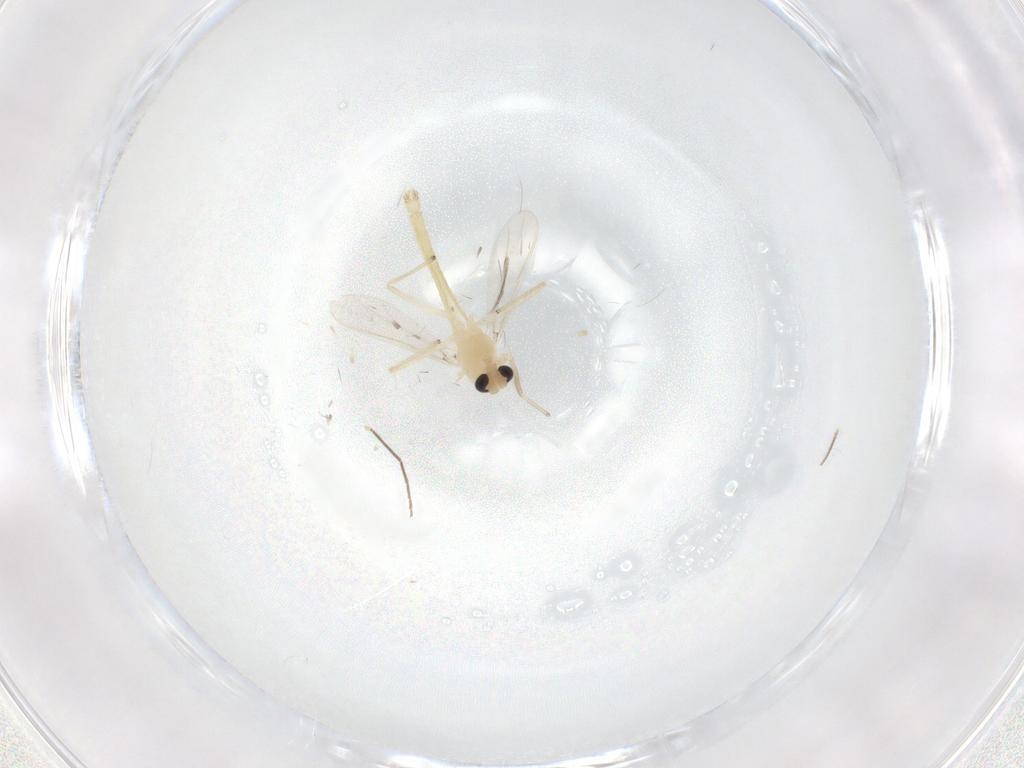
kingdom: Animalia
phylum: Arthropoda
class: Insecta
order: Diptera
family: Chironomidae
